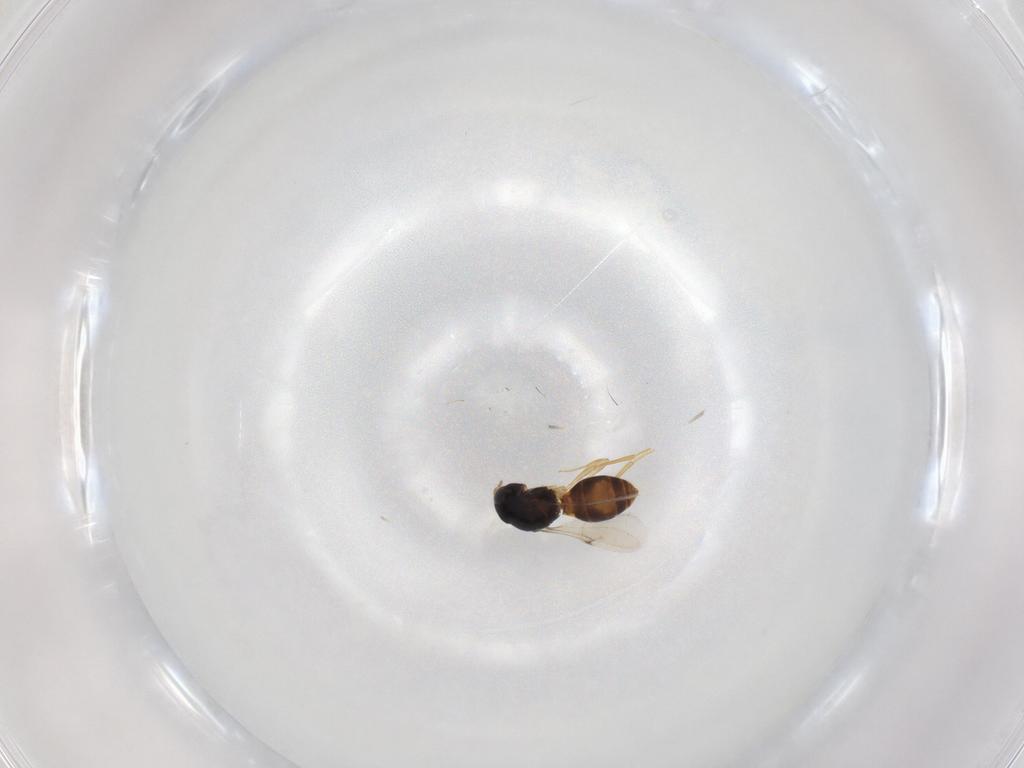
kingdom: Animalia
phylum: Arthropoda
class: Insecta
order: Hymenoptera
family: Scelionidae
